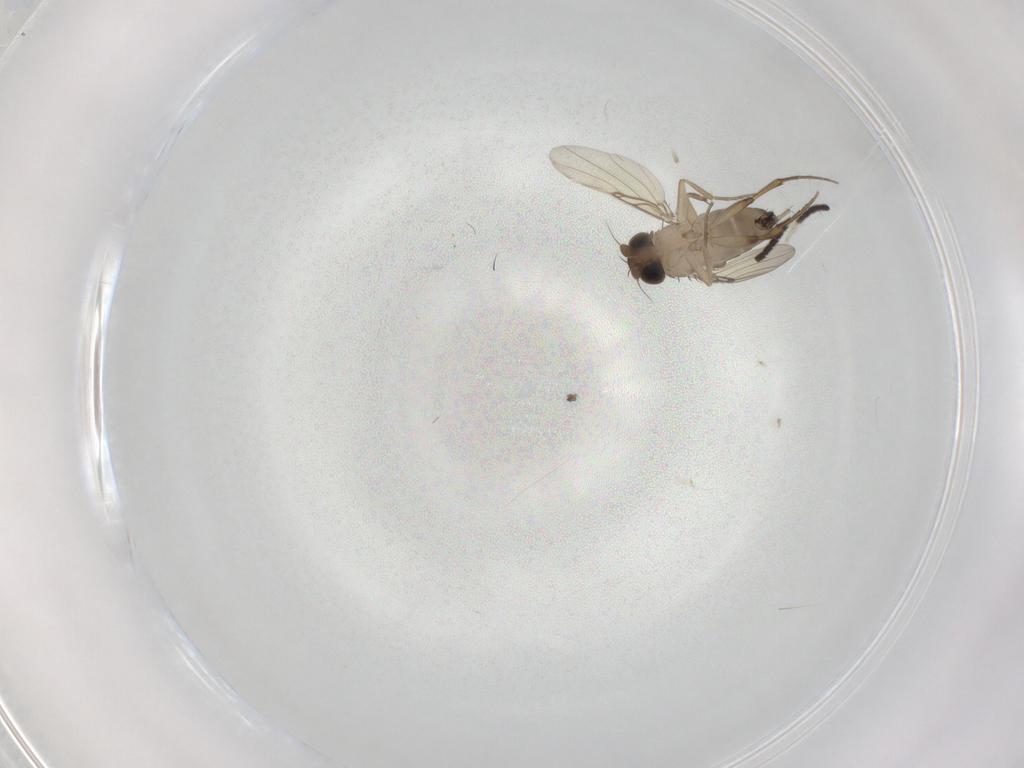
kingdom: Animalia
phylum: Arthropoda
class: Insecta
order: Diptera
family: Phoridae
